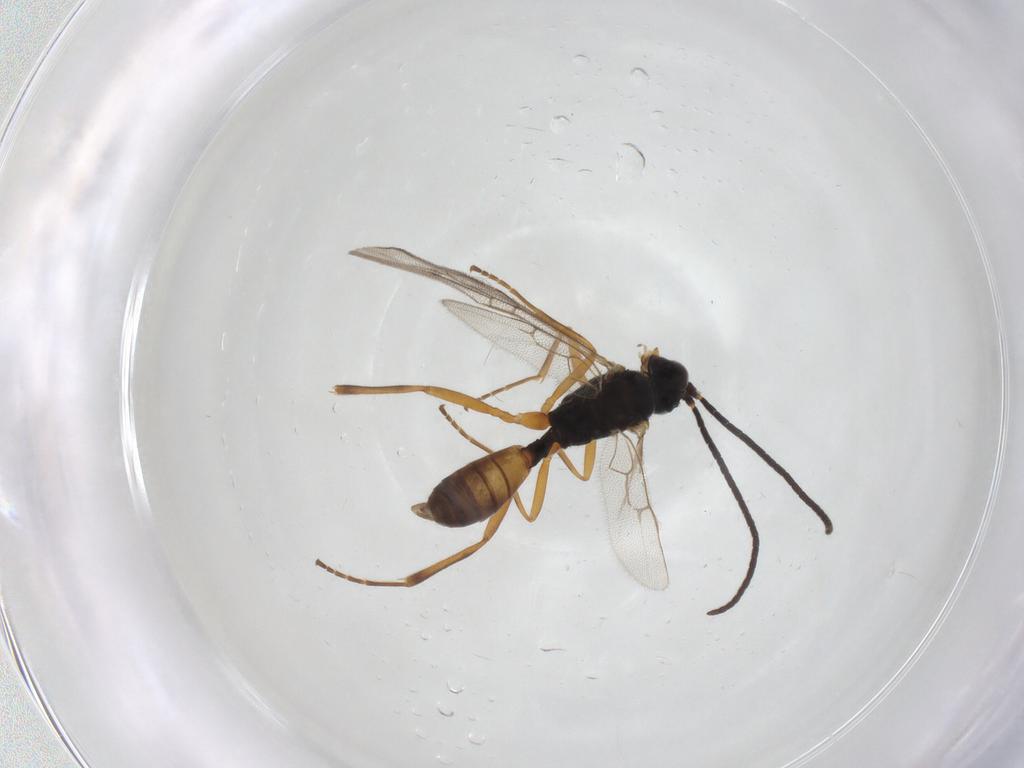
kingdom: Animalia
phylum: Arthropoda
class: Insecta
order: Hymenoptera
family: Ichneumonidae
